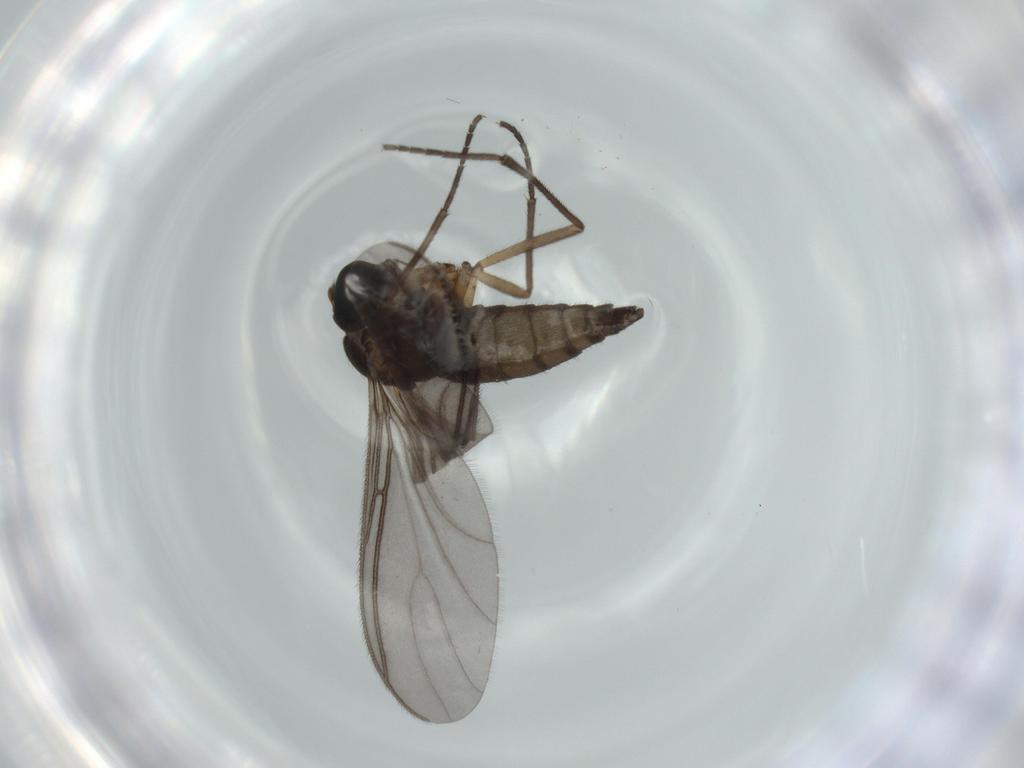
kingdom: Animalia
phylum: Arthropoda
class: Insecta
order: Diptera
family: Sciaridae
